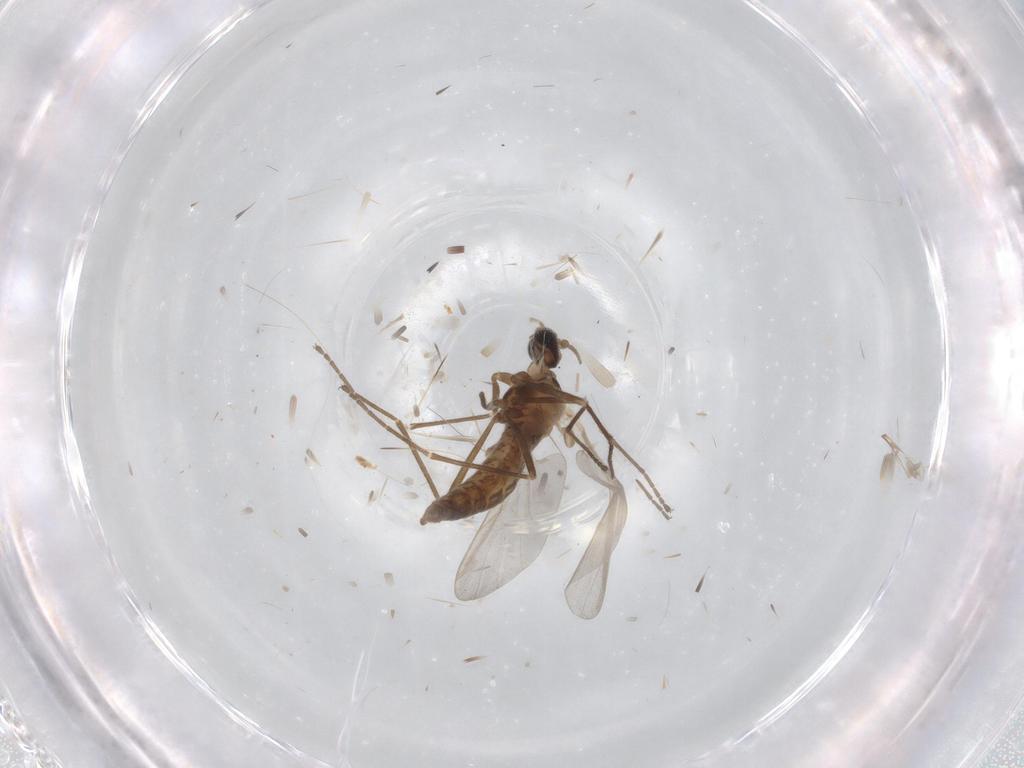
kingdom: Animalia
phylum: Arthropoda
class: Insecta
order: Diptera
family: Cecidomyiidae
